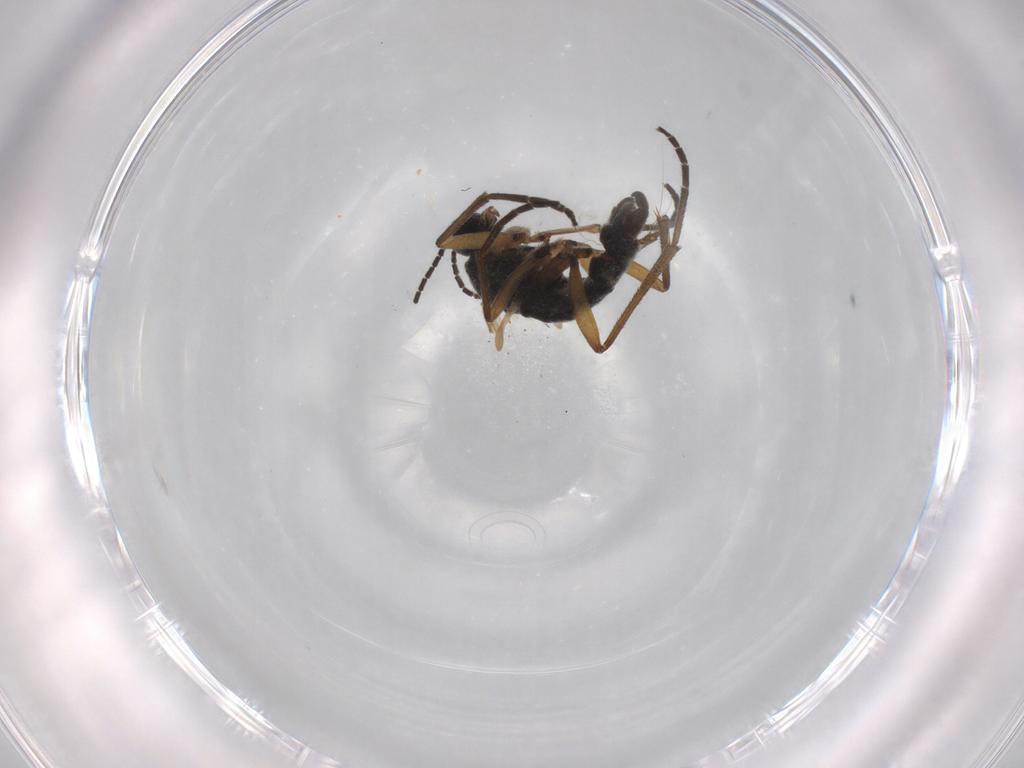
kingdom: Animalia
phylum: Arthropoda
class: Insecta
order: Diptera
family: Sciaridae
